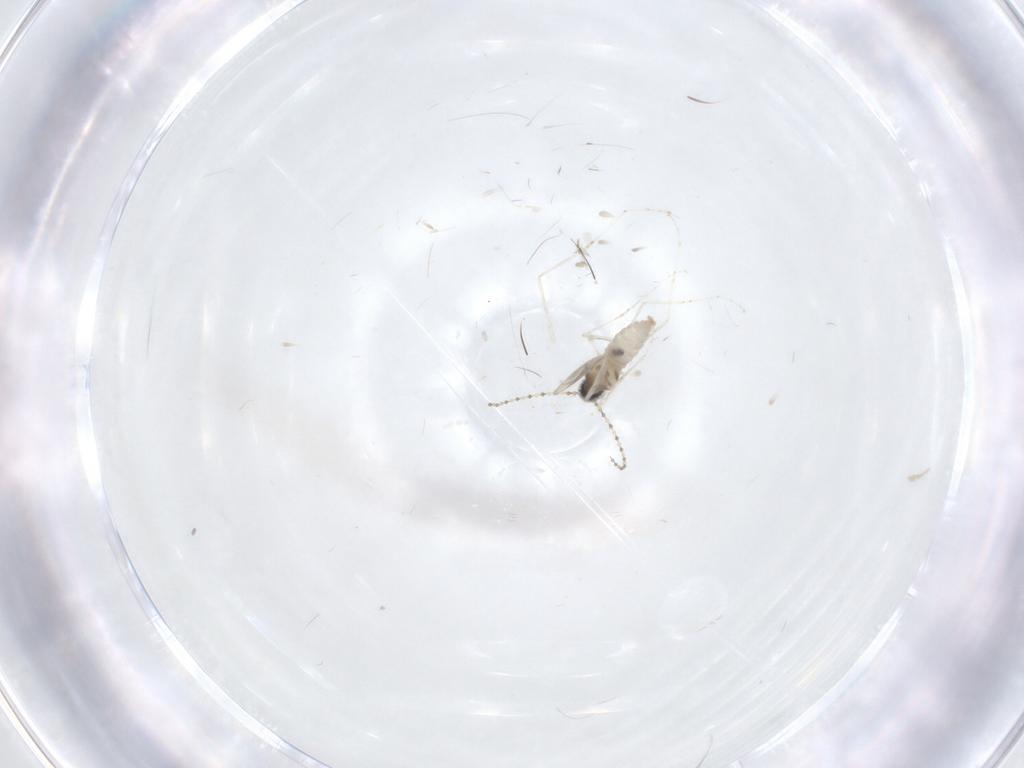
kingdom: Animalia
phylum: Arthropoda
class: Insecta
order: Diptera
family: Cecidomyiidae
